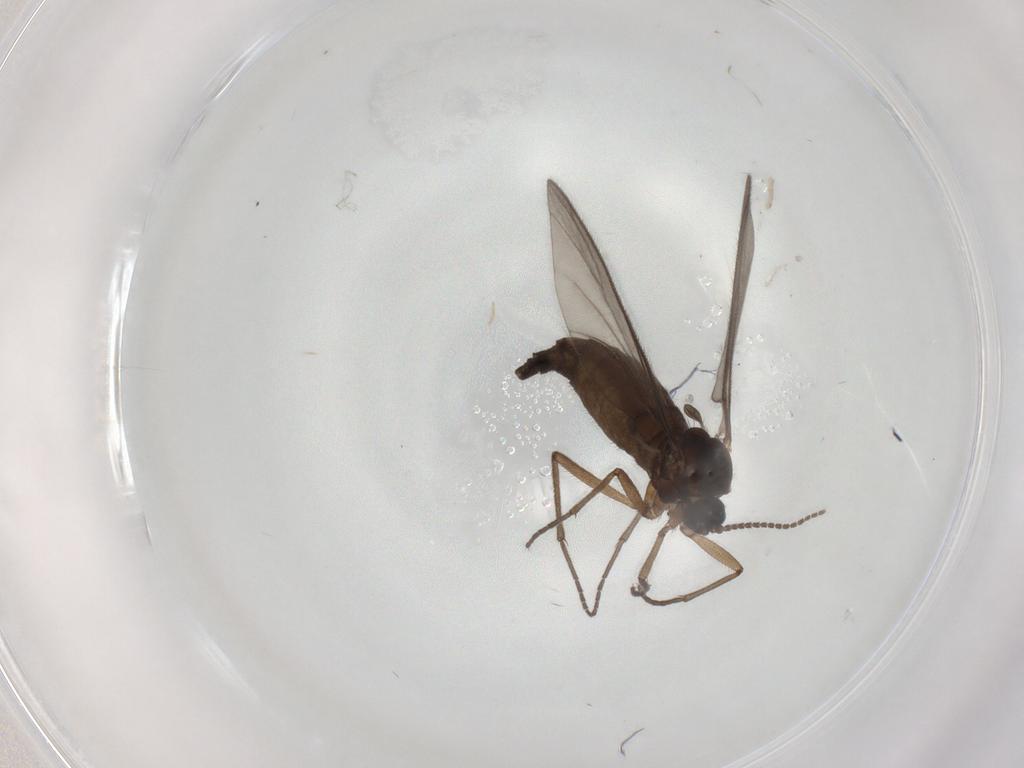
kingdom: Animalia
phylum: Arthropoda
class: Insecta
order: Diptera
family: Sciaridae
